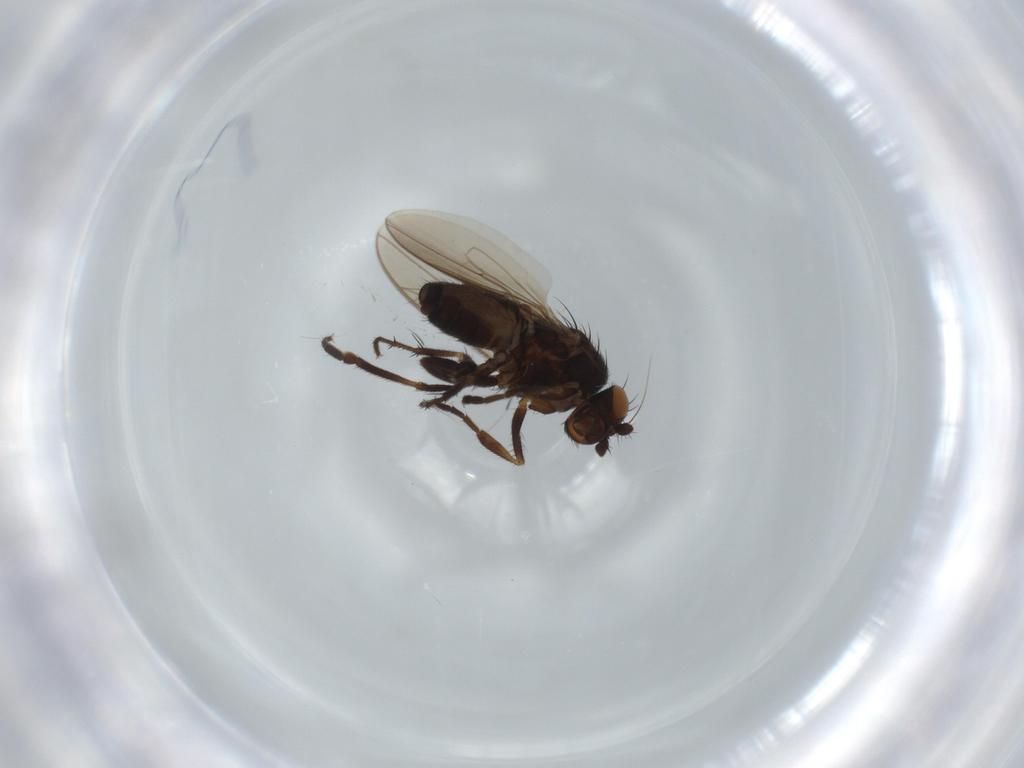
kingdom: Animalia
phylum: Arthropoda
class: Insecta
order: Diptera
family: Sphaeroceridae
